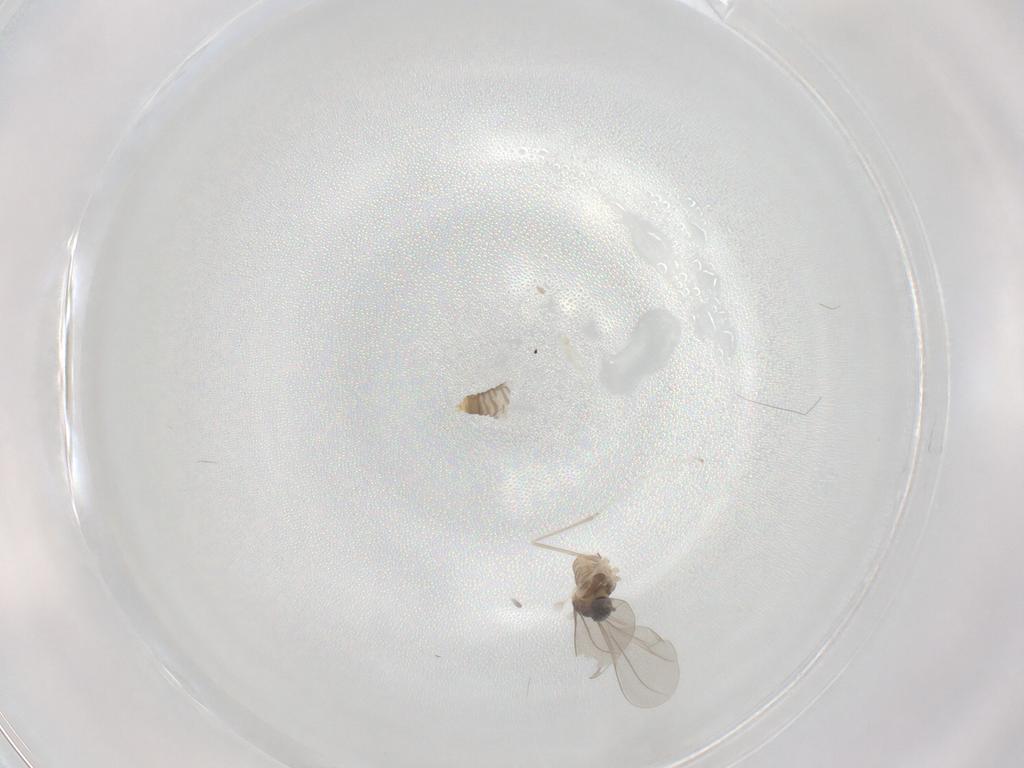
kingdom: Animalia
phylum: Arthropoda
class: Insecta
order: Diptera
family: Cecidomyiidae
